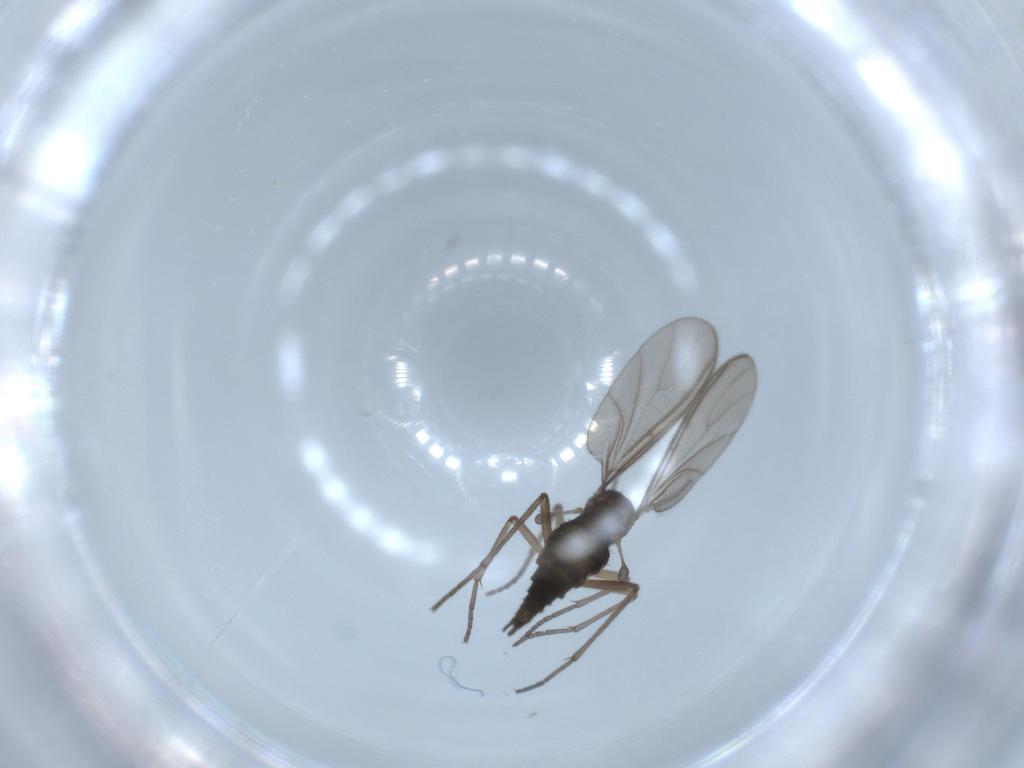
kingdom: Animalia
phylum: Arthropoda
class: Insecta
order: Diptera
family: Sciaridae
